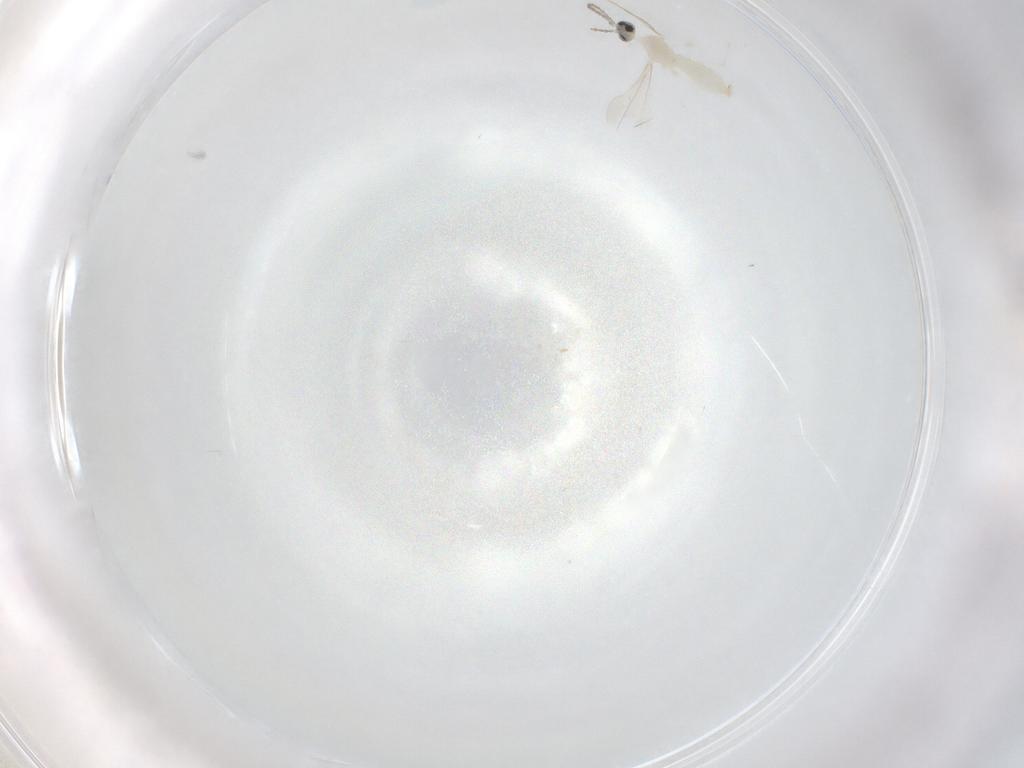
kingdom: Animalia
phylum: Arthropoda
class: Insecta
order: Diptera
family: Cecidomyiidae
